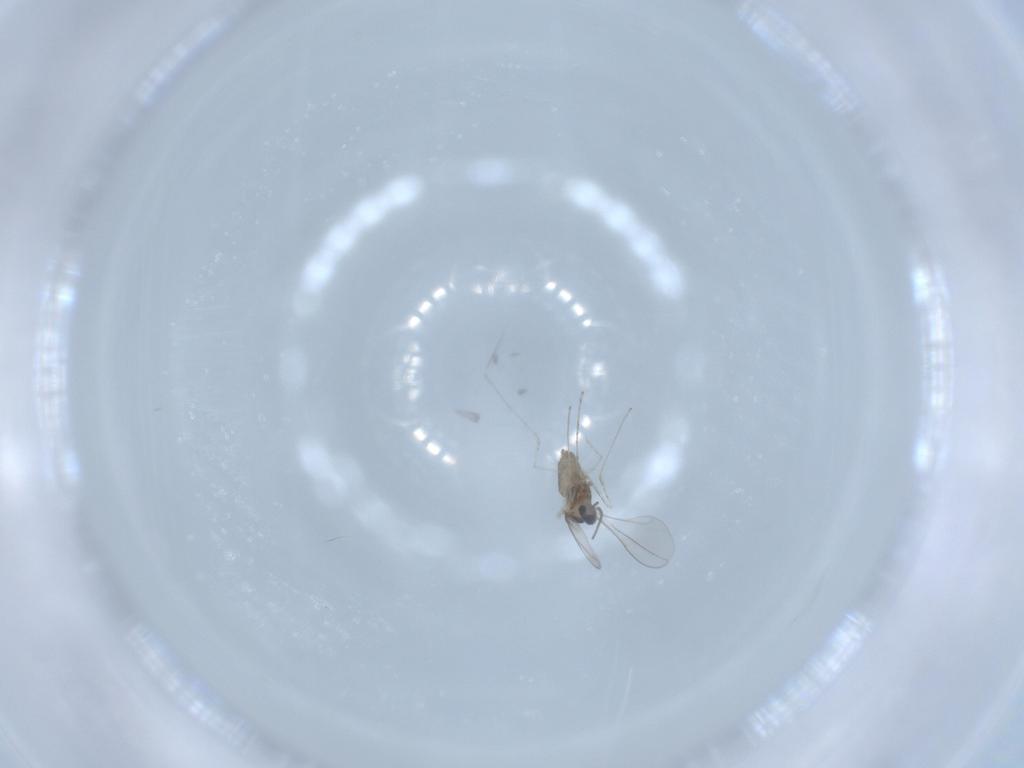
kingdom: Animalia
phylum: Arthropoda
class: Insecta
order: Diptera
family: Cecidomyiidae
